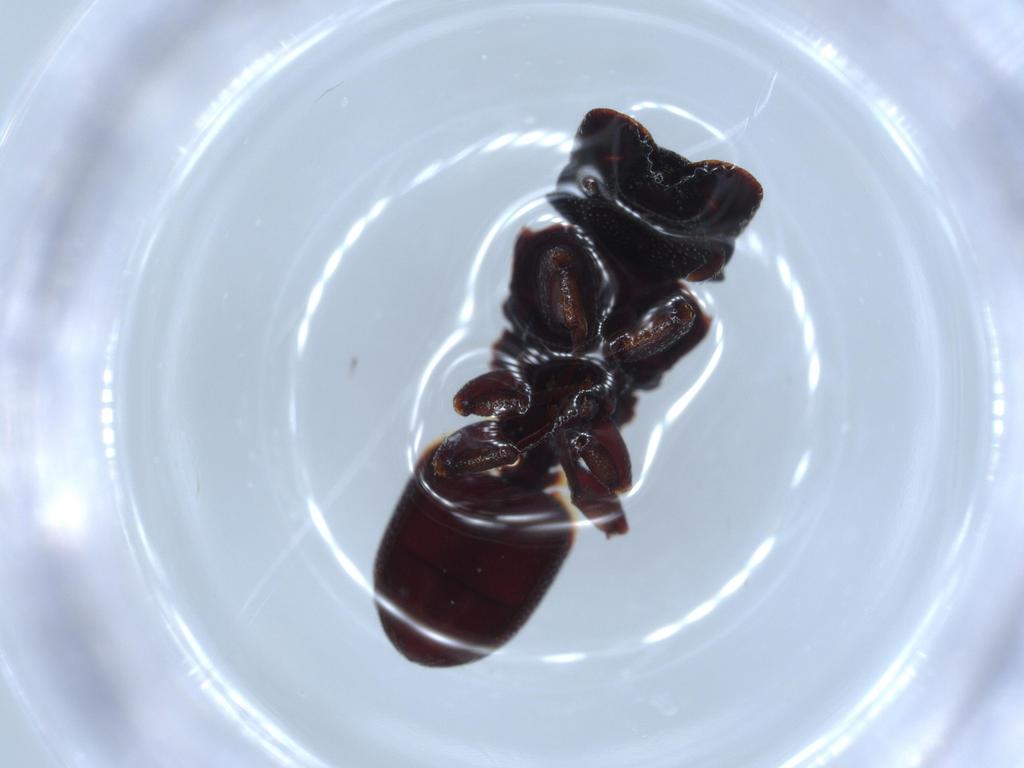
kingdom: Animalia
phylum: Arthropoda
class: Insecta
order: Hymenoptera
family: Formicidae
